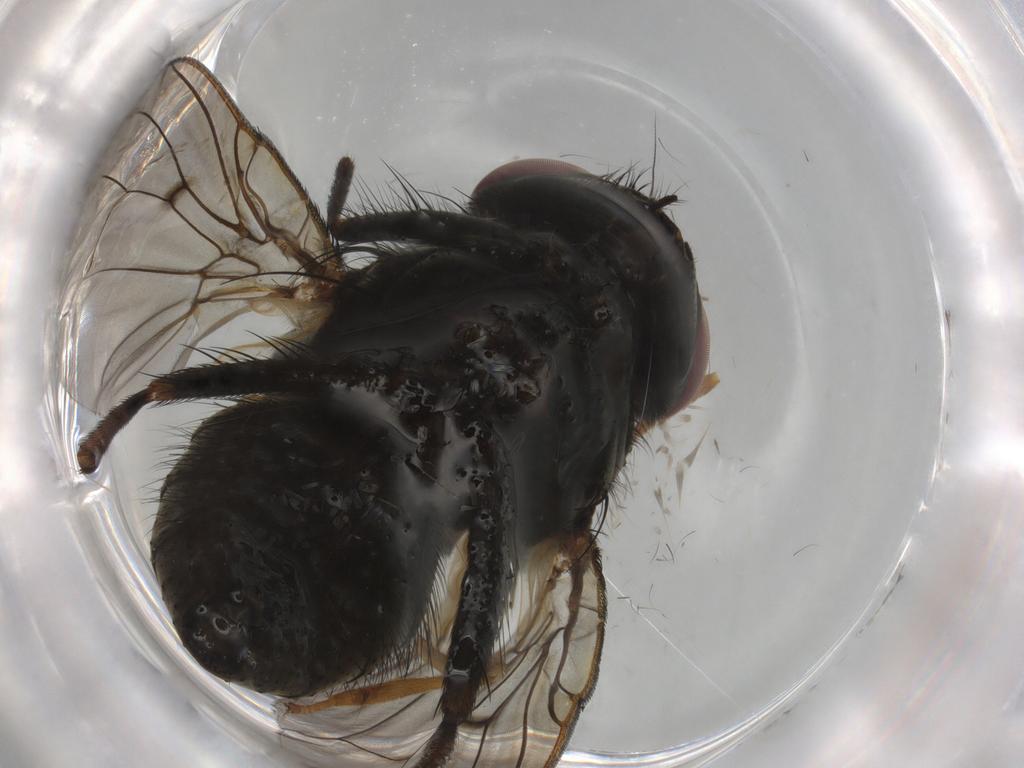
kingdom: Animalia
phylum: Arthropoda
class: Insecta
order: Diptera
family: Muscidae
